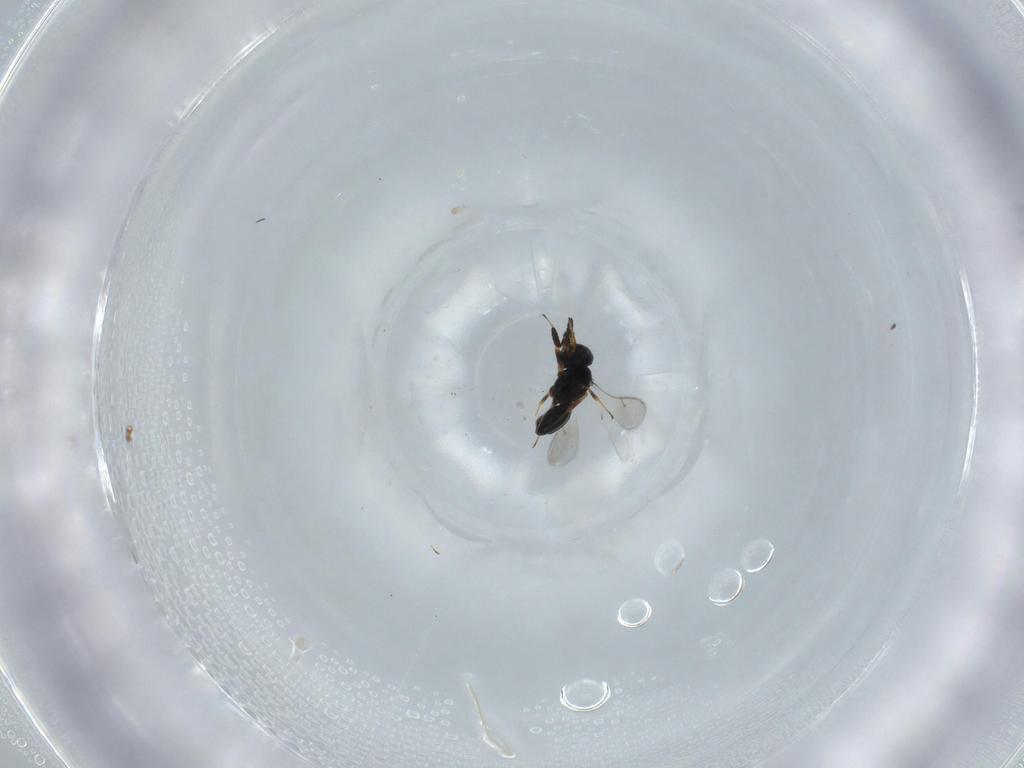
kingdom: Animalia
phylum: Arthropoda
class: Insecta
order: Hymenoptera
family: Scelionidae
